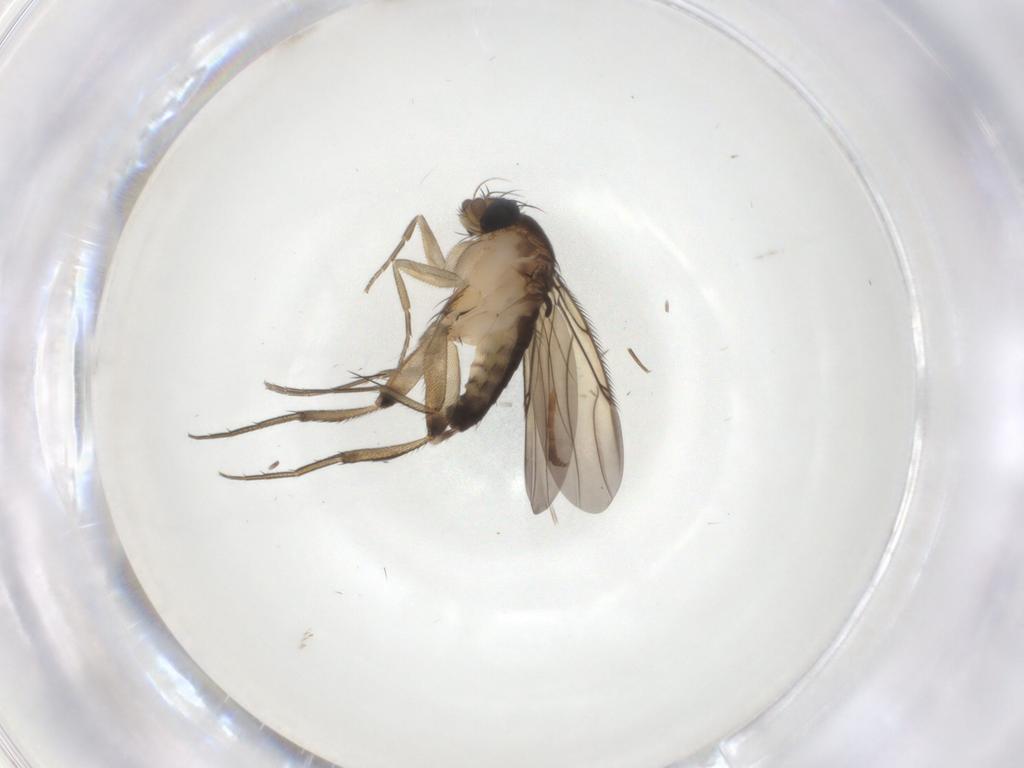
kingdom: Animalia
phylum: Arthropoda
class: Insecta
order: Diptera
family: Phoridae
